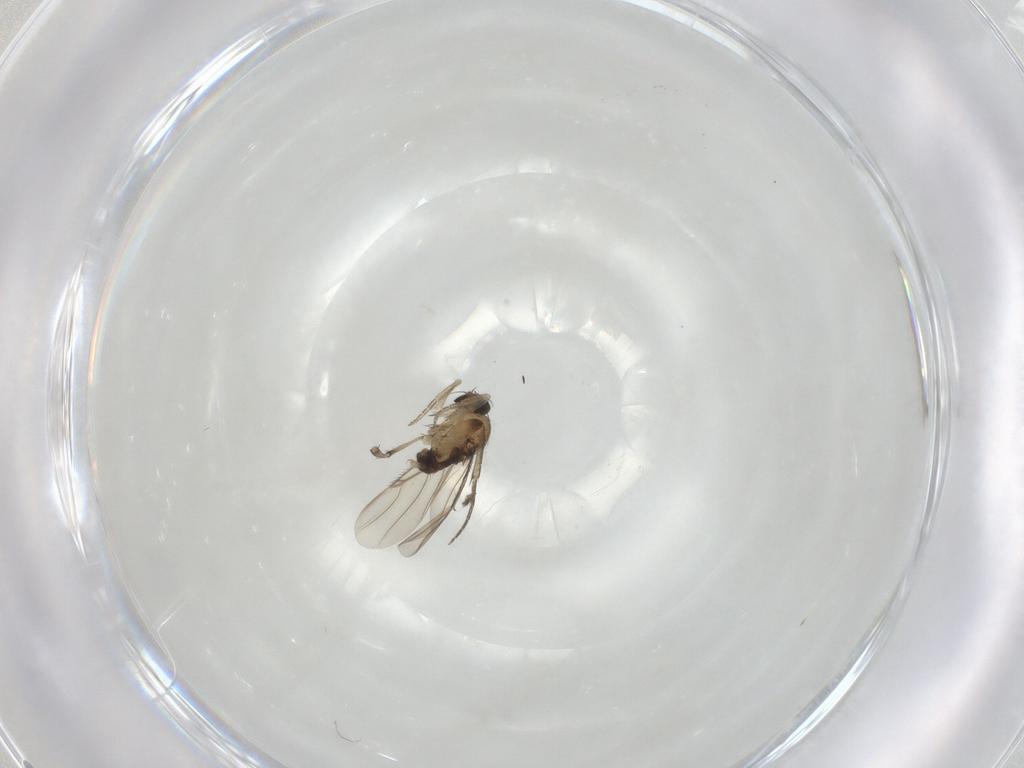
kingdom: Animalia
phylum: Arthropoda
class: Insecta
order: Diptera
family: Phoridae
